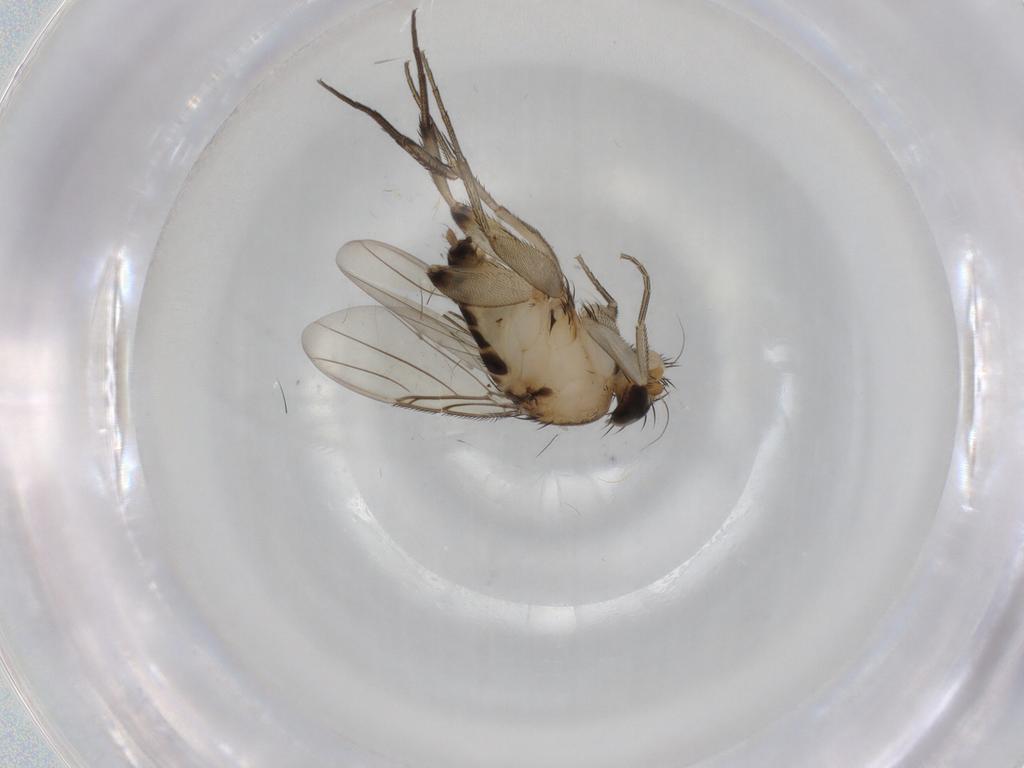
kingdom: Animalia
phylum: Arthropoda
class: Insecta
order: Diptera
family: Phoridae
